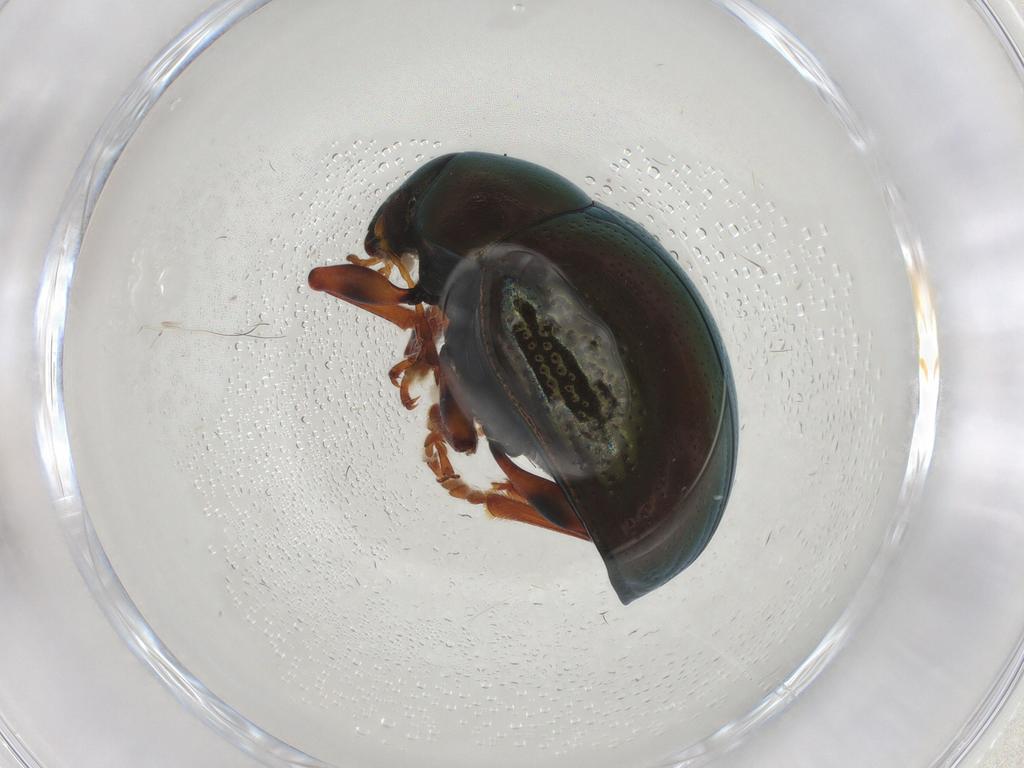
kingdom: Animalia
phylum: Arthropoda
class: Insecta
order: Coleoptera
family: Chrysomelidae
